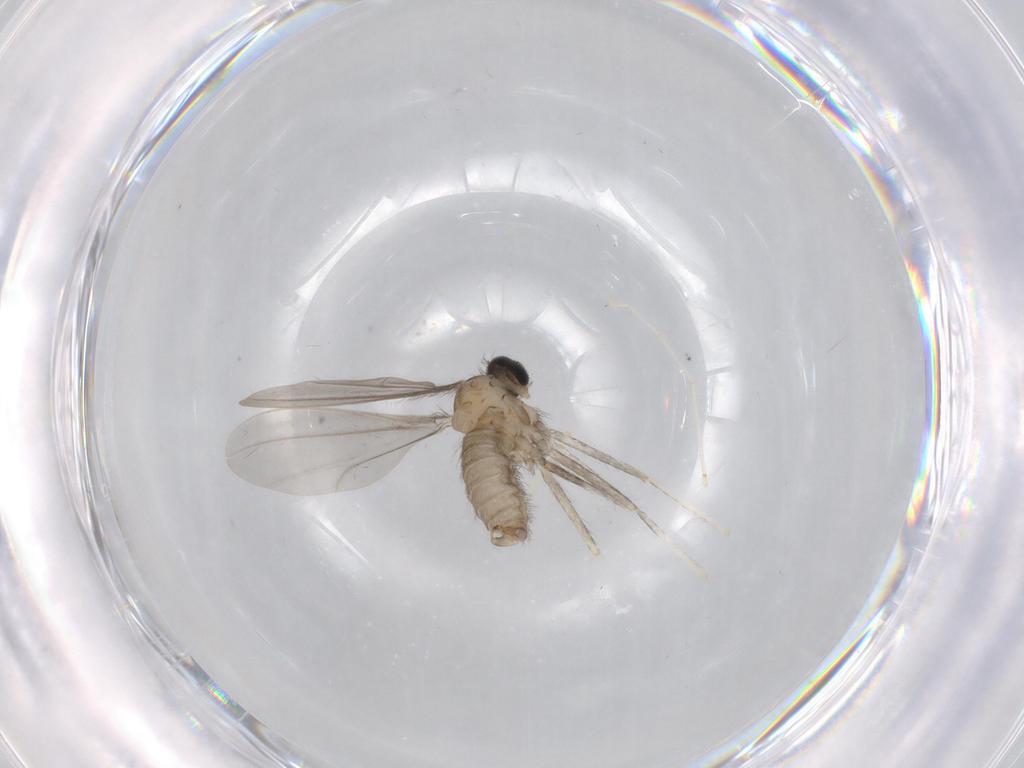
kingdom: Animalia
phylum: Arthropoda
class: Insecta
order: Diptera
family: Chironomidae
